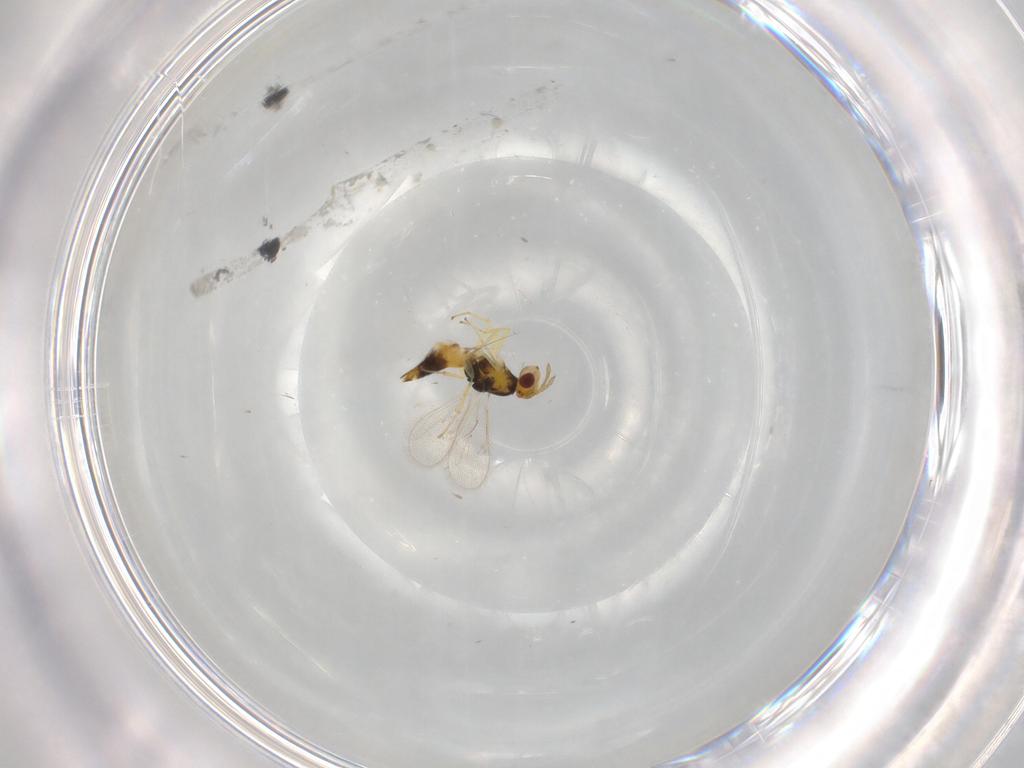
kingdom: Animalia
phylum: Arthropoda
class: Insecta
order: Hymenoptera
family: Eulophidae
